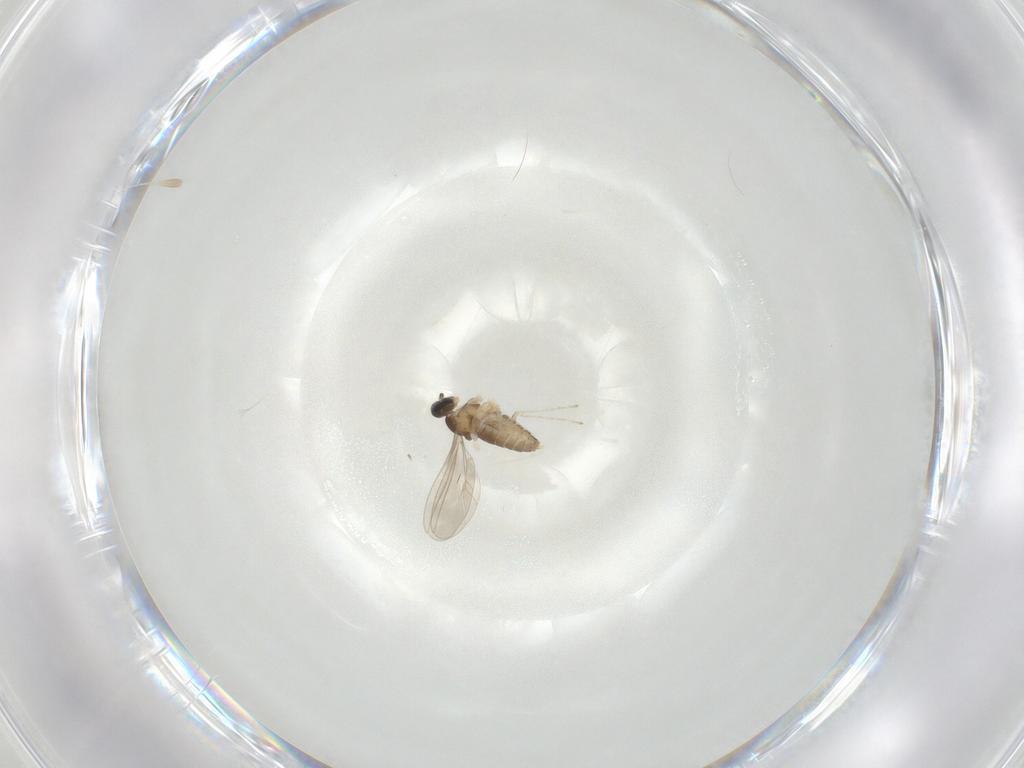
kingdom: Animalia
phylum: Arthropoda
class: Insecta
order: Diptera
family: Cecidomyiidae
